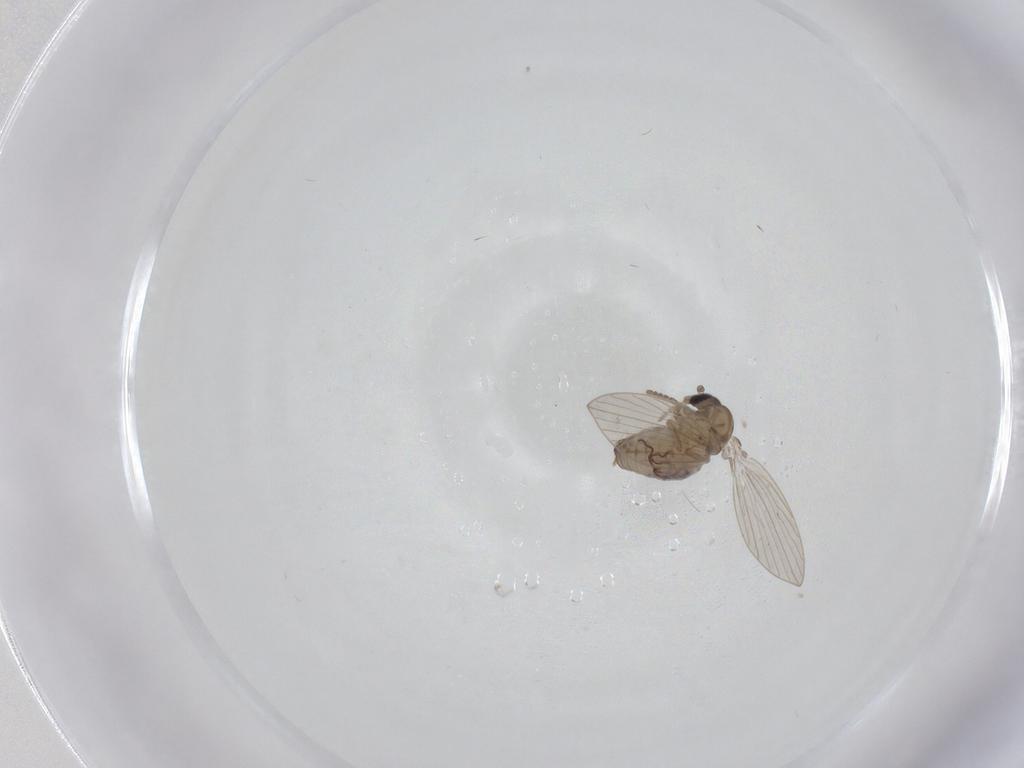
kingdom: Animalia
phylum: Arthropoda
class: Insecta
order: Diptera
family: Psychodidae
